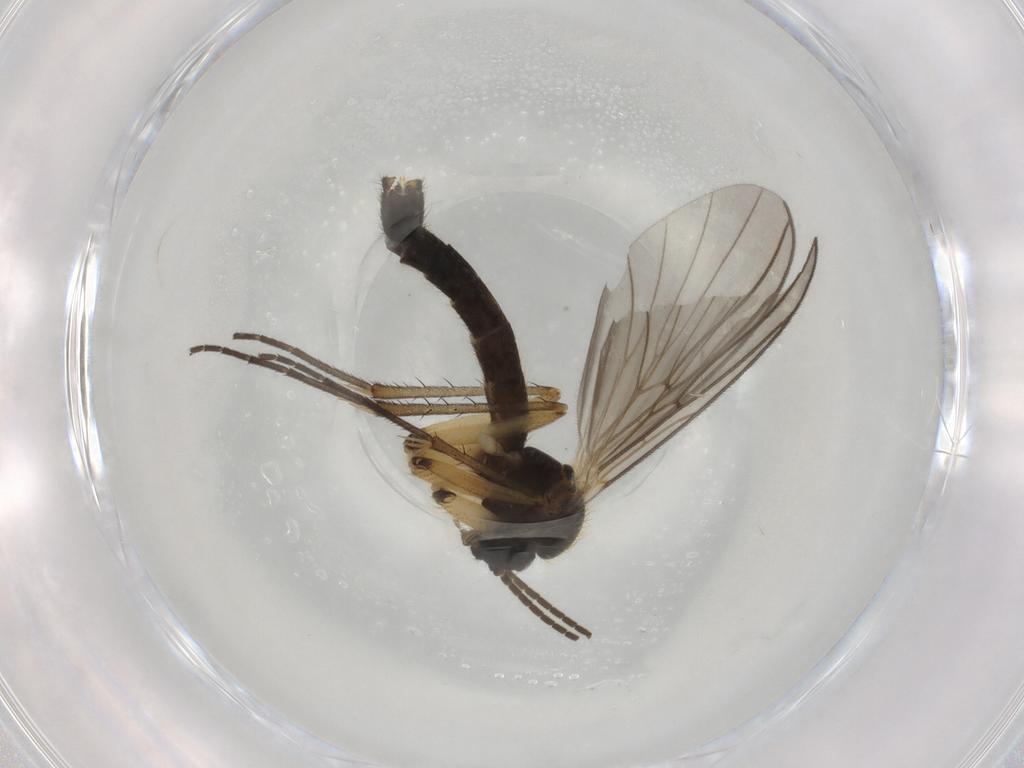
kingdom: Animalia
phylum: Arthropoda
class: Insecta
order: Diptera
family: Mycetophilidae
